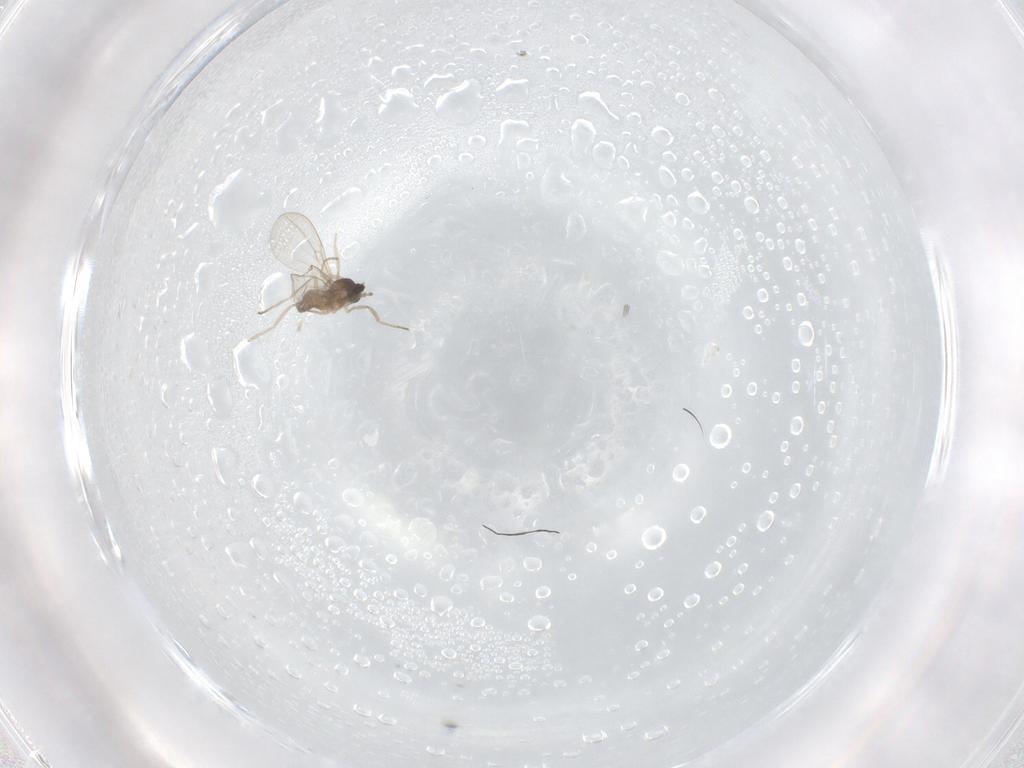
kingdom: Animalia
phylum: Arthropoda
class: Insecta
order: Diptera
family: Cecidomyiidae
